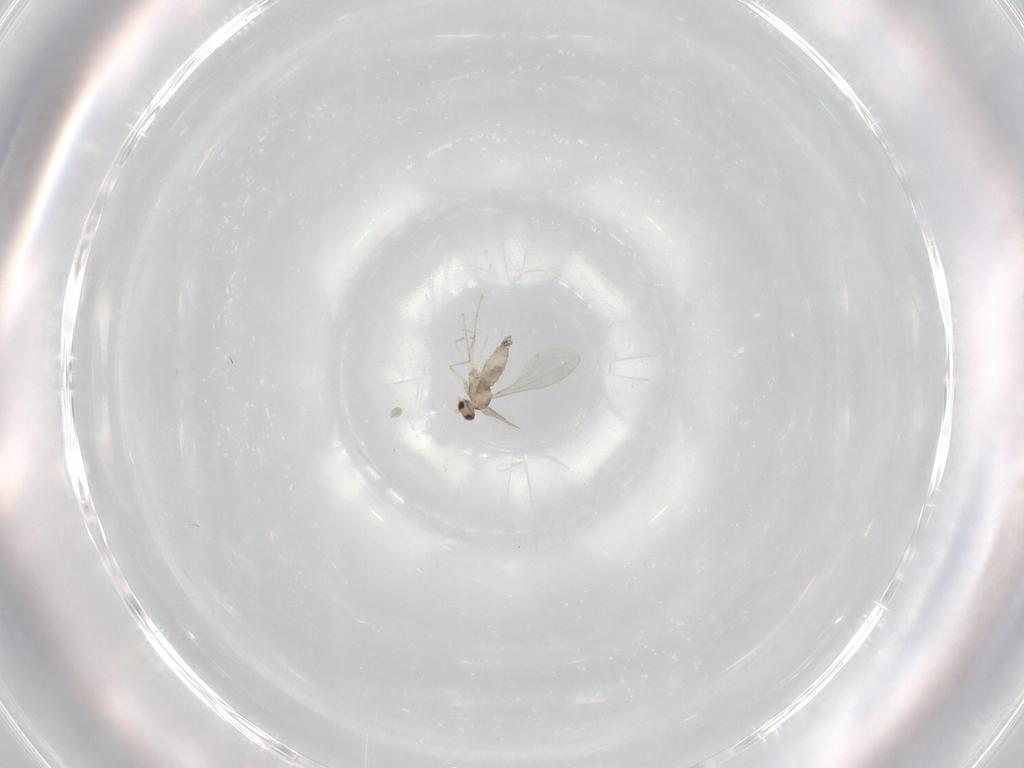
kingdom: Animalia
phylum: Arthropoda
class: Insecta
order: Diptera
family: Cecidomyiidae
